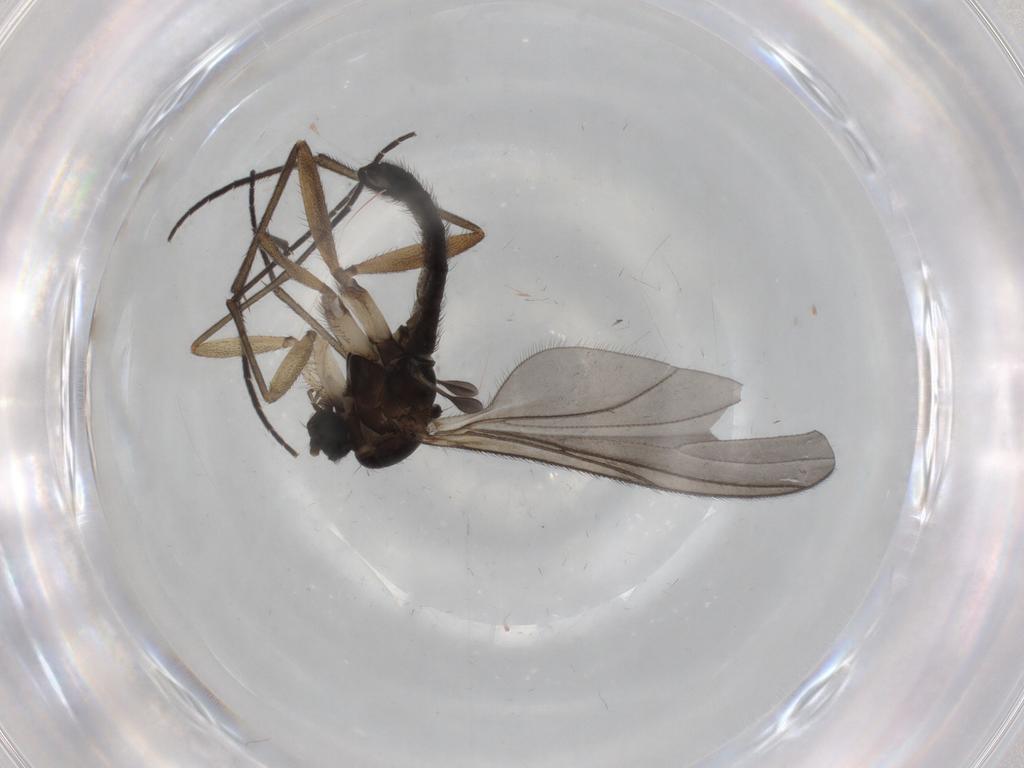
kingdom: Animalia
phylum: Arthropoda
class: Insecta
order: Diptera
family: Sciaridae
